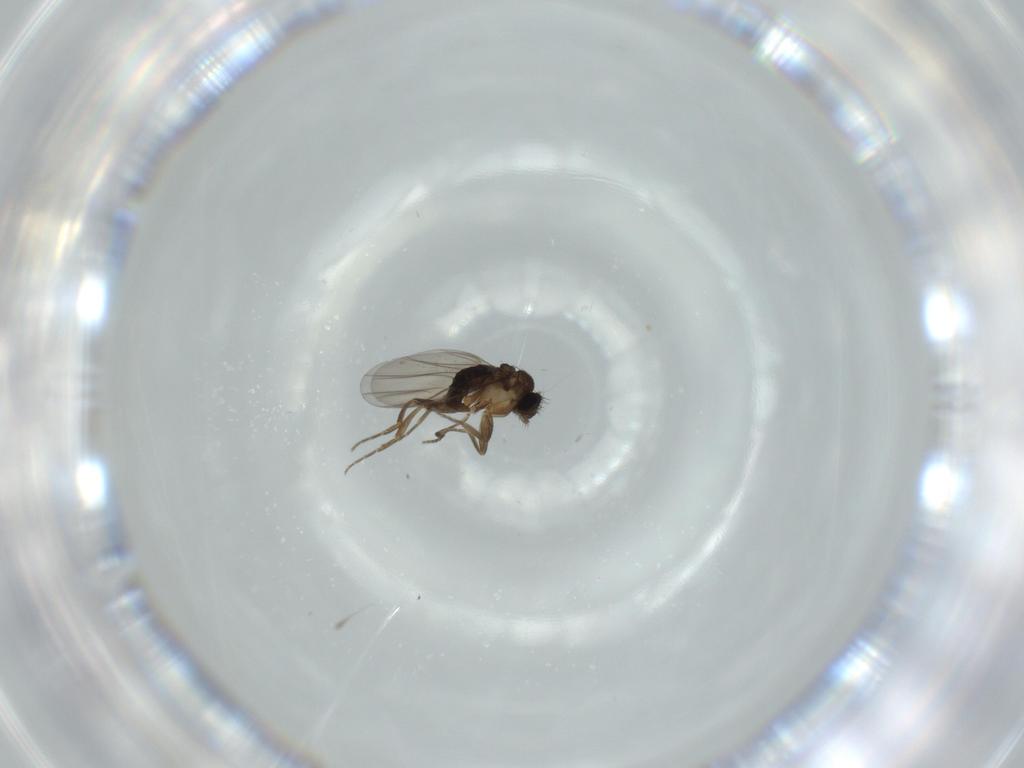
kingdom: Animalia
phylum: Arthropoda
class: Insecta
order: Diptera
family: Phoridae
